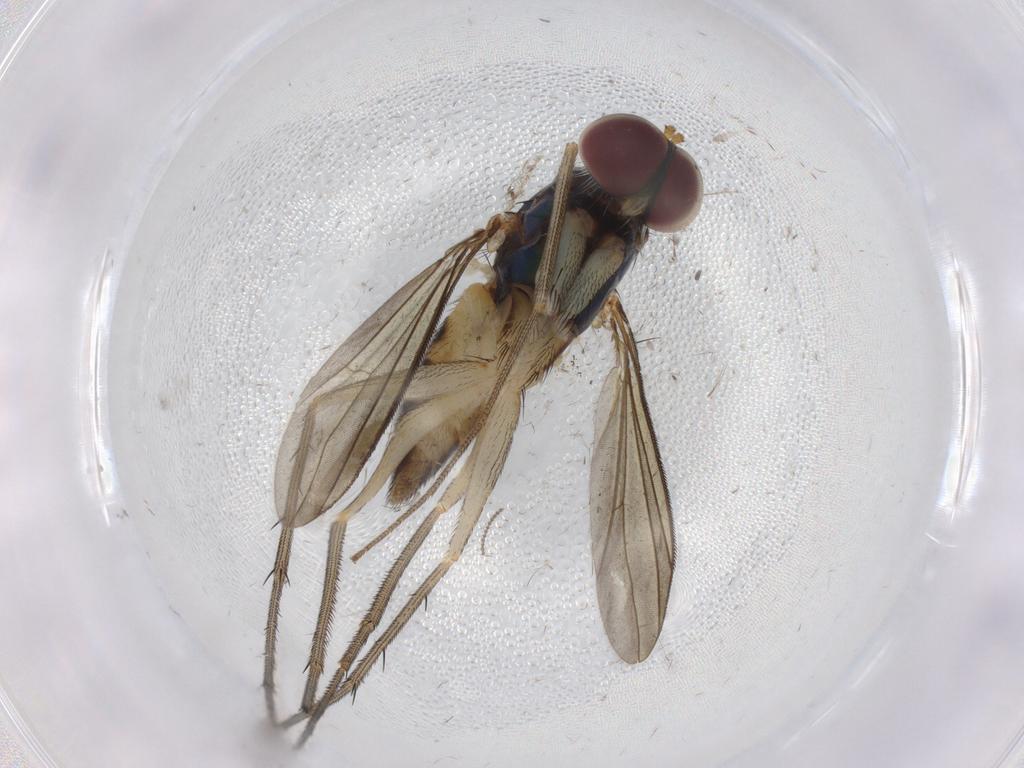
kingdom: Animalia
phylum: Arthropoda
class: Insecta
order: Diptera
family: Dolichopodidae
